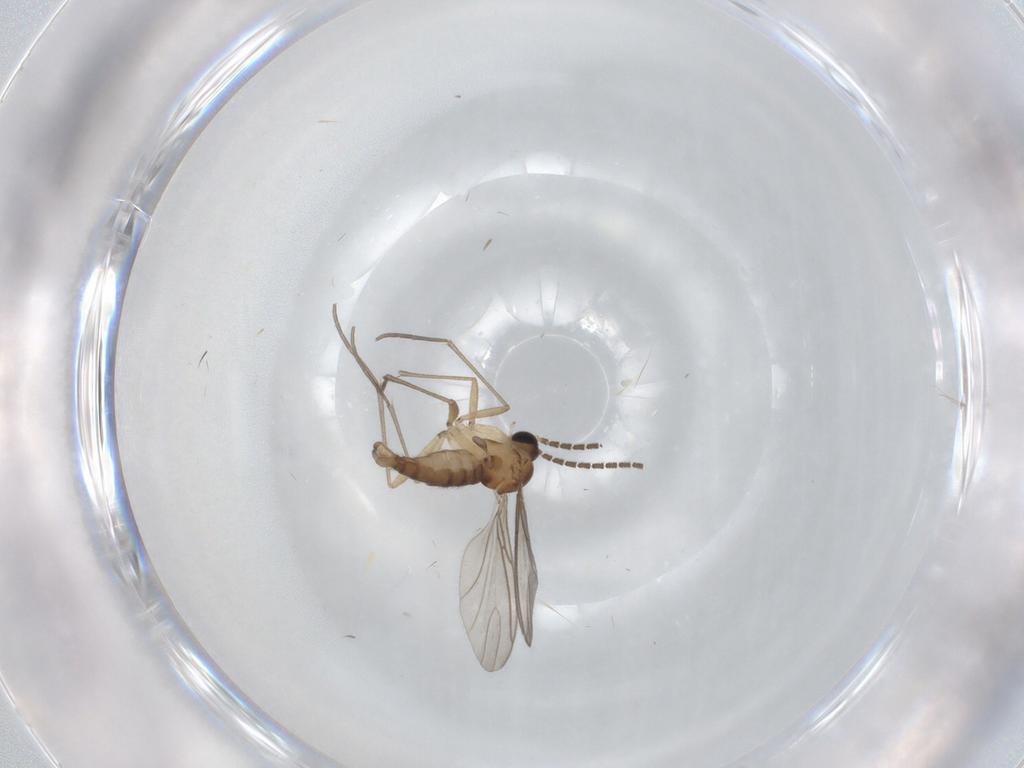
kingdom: Animalia
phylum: Arthropoda
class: Insecta
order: Diptera
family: Sciaridae
